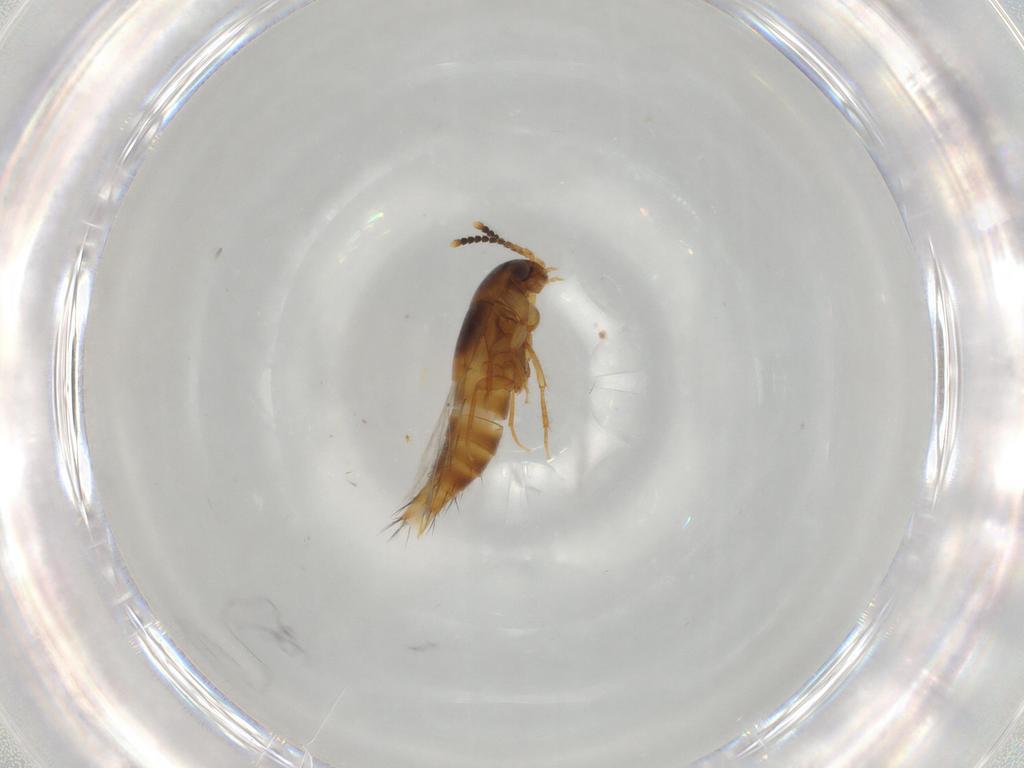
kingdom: Animalia
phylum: Arthropoda
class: Insecta
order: Coleoptera
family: Staphylinidae
